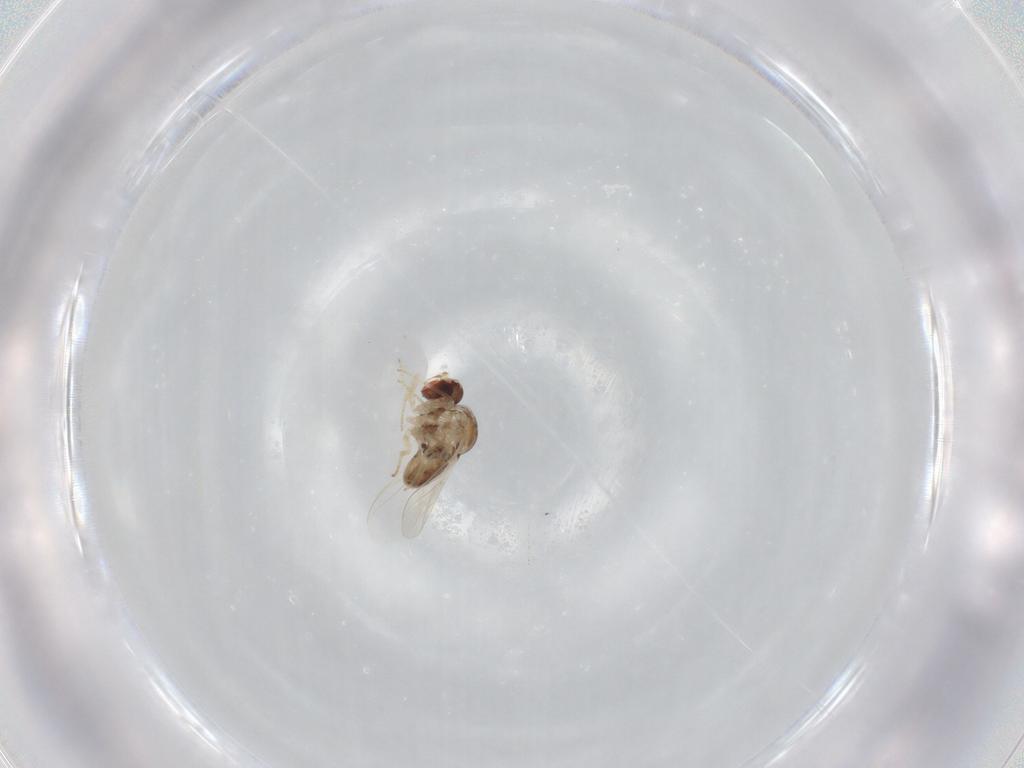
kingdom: Animalia
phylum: Arthropoda
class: Insecta
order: Diptera
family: Bombyliidae
